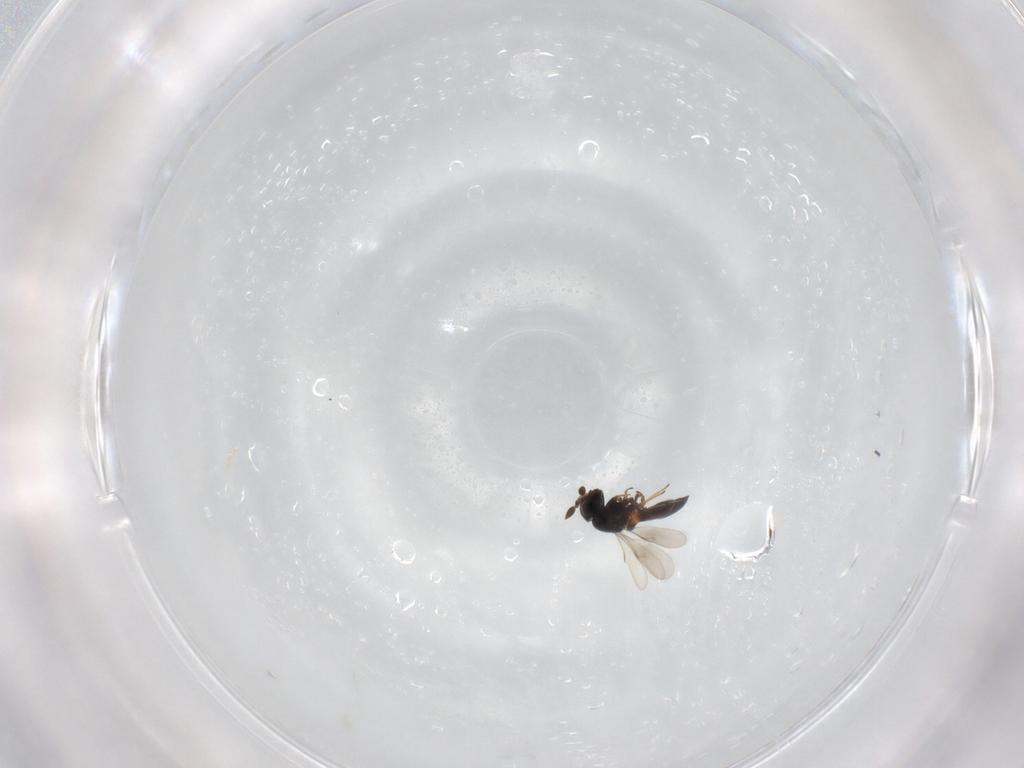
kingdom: Animalia
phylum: Arthropoda
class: Insecta
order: Hymenoptera
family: Scelionidae
